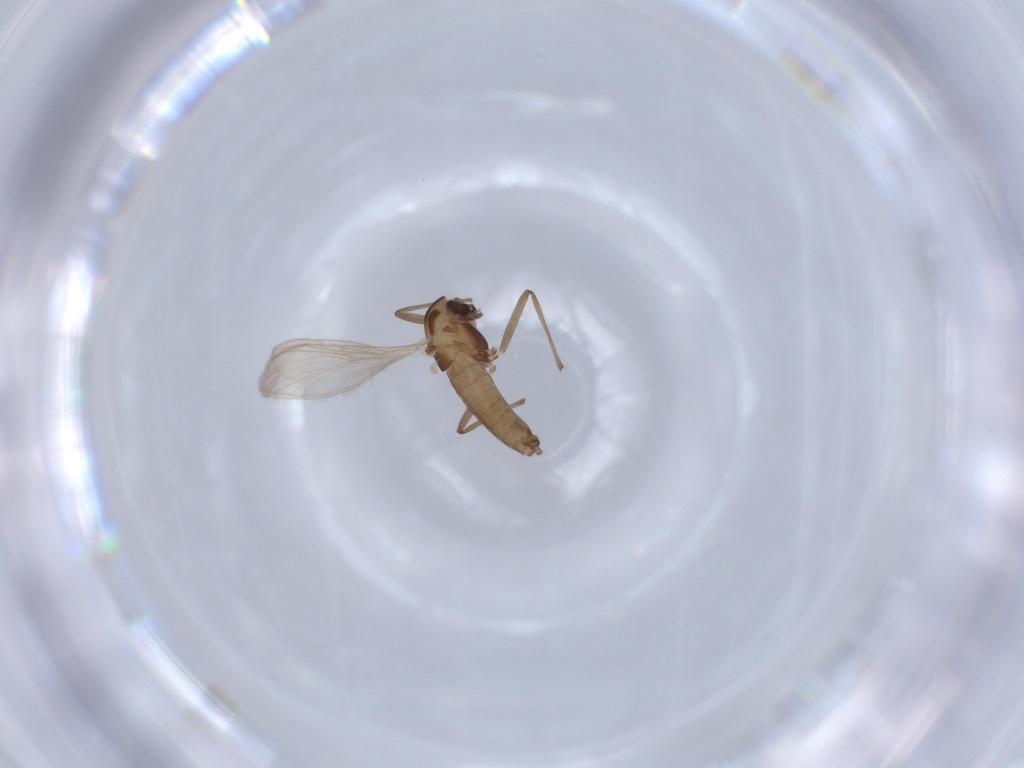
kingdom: Animalia
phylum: Arthropoda
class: Insecta
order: Diptera
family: Chironomidae
